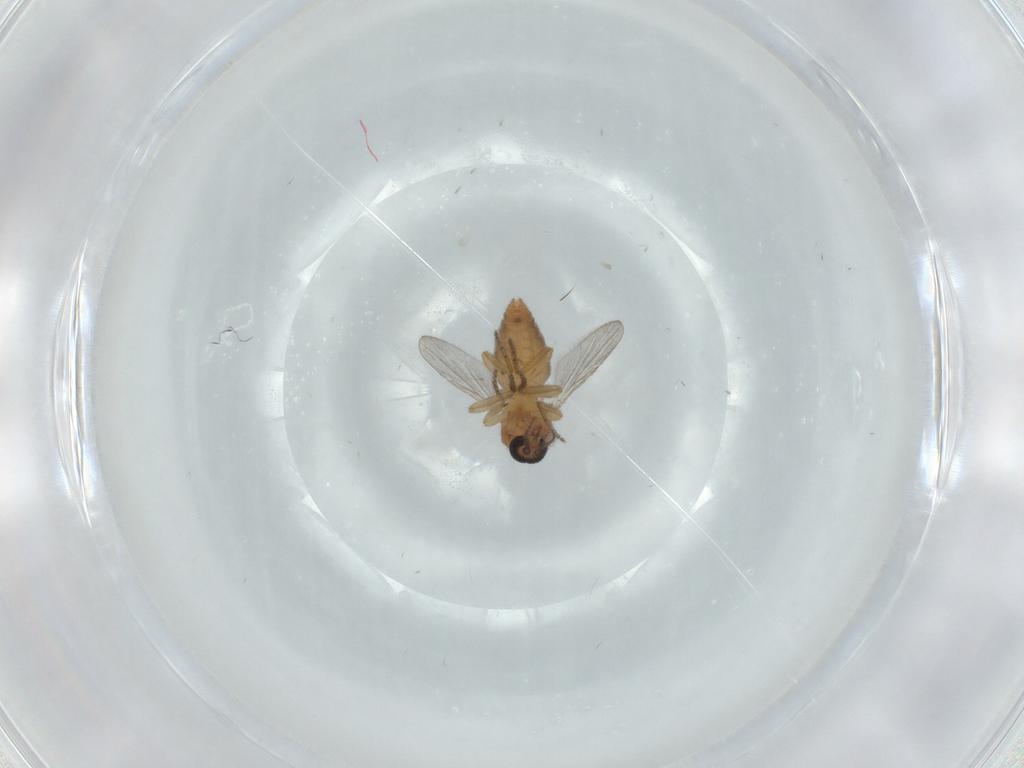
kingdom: Animalia
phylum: Arthropoda
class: Insecta
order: Diptera
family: Ceratopogonidae
